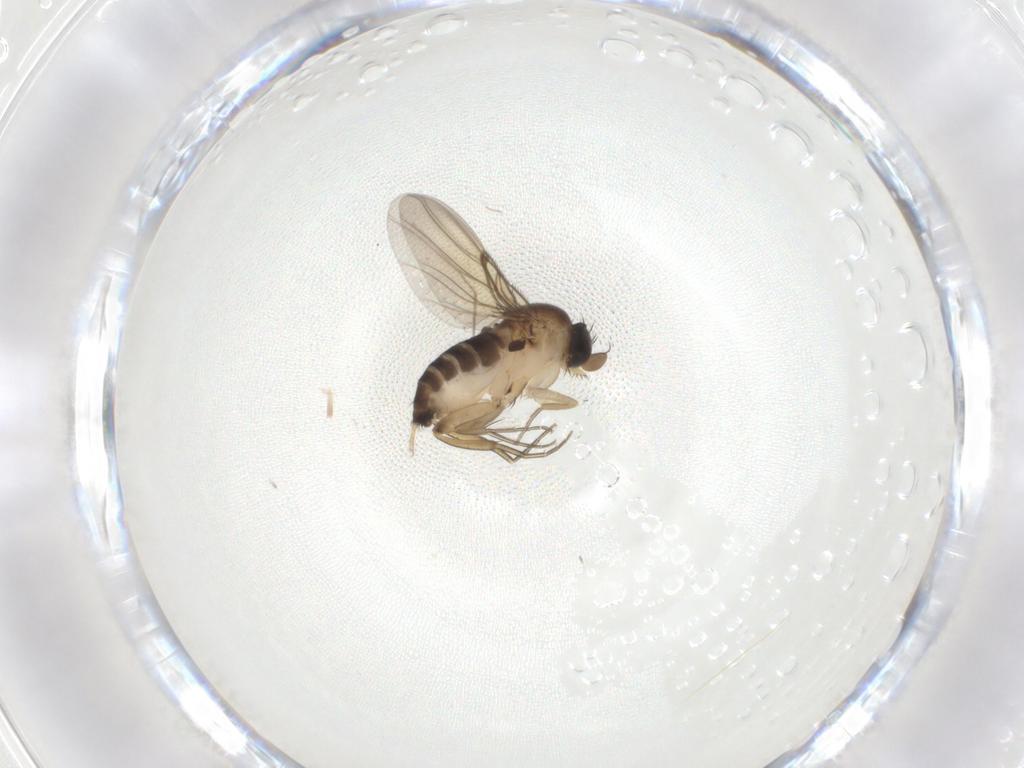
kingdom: Animalia
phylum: Arthropoda
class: Insecta
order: Diptera
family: Phoridae
